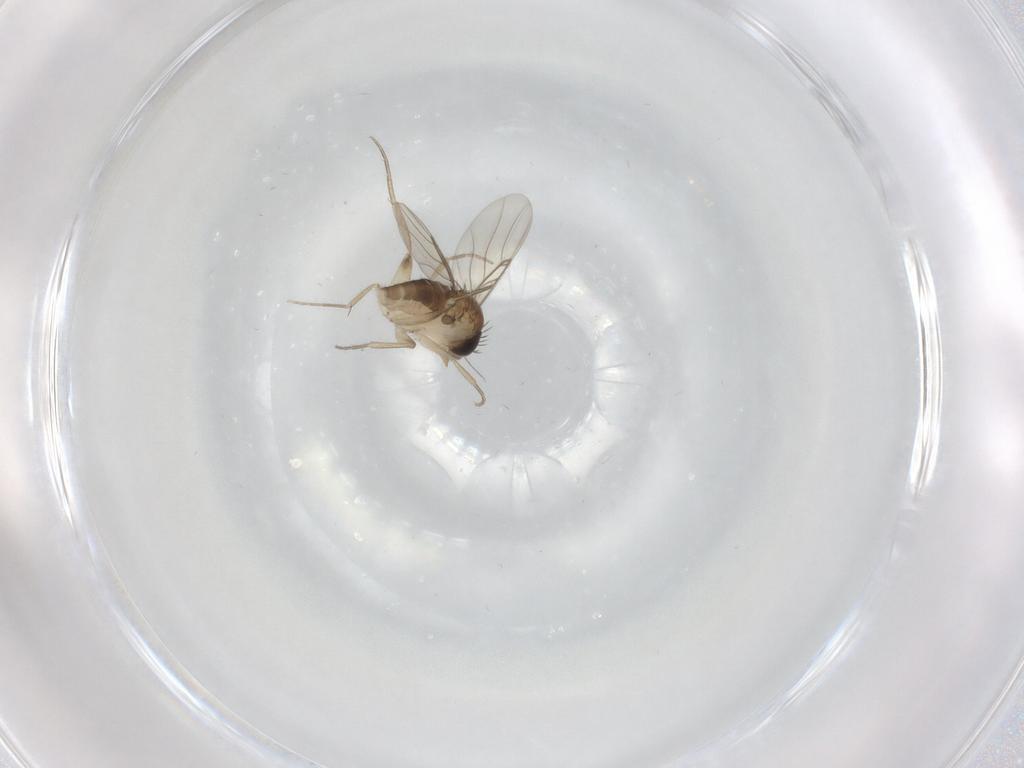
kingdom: Animalia
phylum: Arthropoda
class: Insecta
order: Diptera
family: Phoridae
